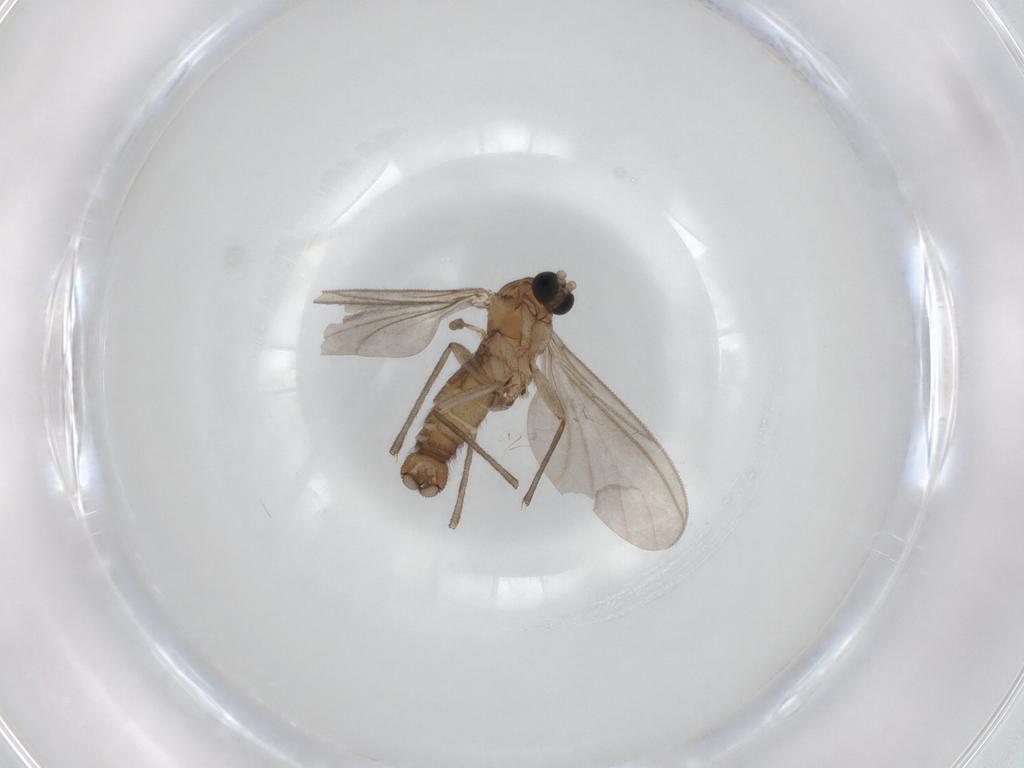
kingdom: Animalia
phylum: Arthropoda
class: Insecta
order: Diptera
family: Sciaridae
